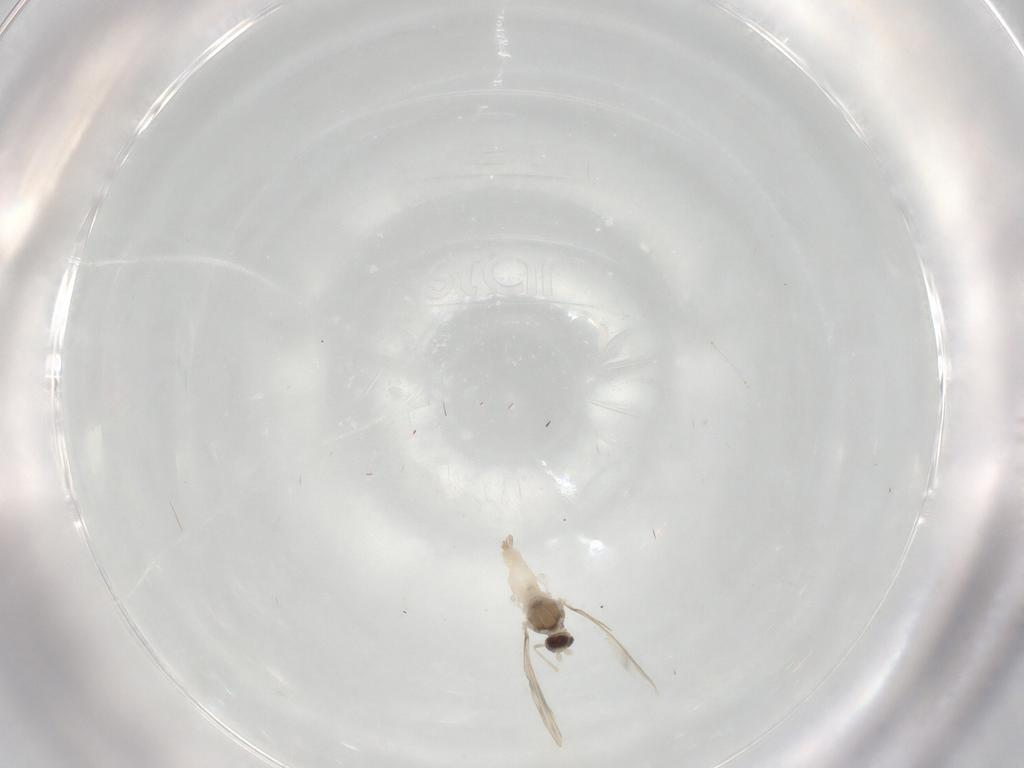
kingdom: Animalia
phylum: Arthropoda
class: Insecta
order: Diptera
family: Cecidomyiidae
